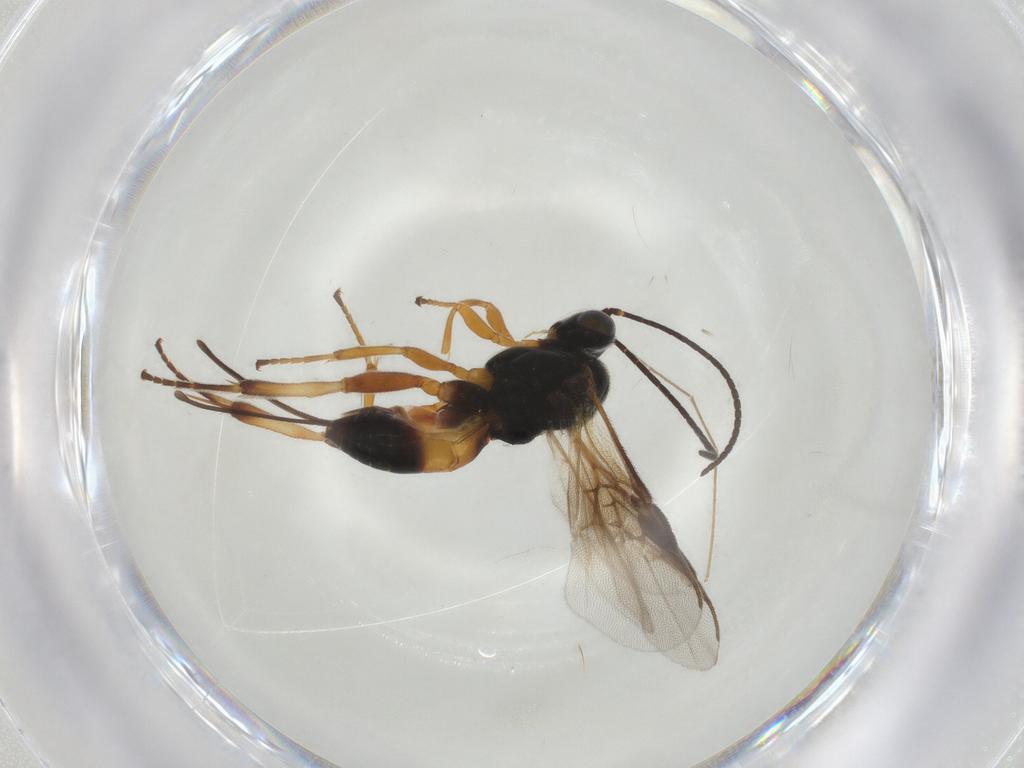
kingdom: Animalia
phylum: Arthropoda
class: Insecta
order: Hymenoptera
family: Braconidae
